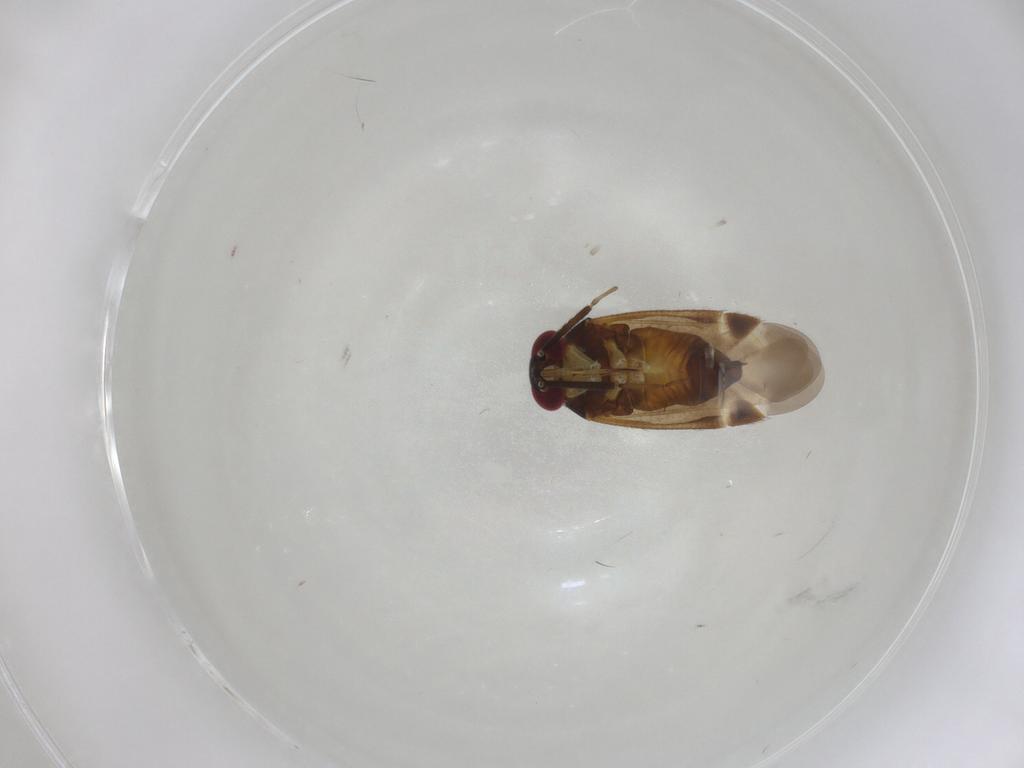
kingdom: Animalia
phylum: Arthropoda
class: Insecta
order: Hemiptera
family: Tingidae
